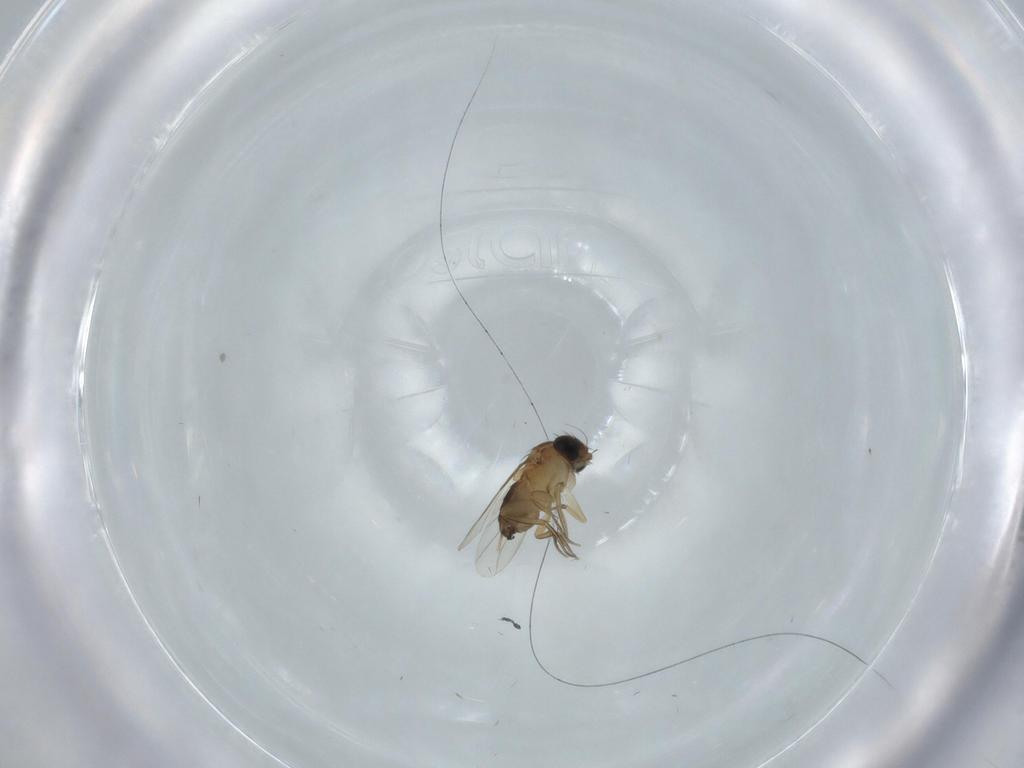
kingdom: Animalia
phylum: Arthropoda
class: Insecta
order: Diptera
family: Phoridae
